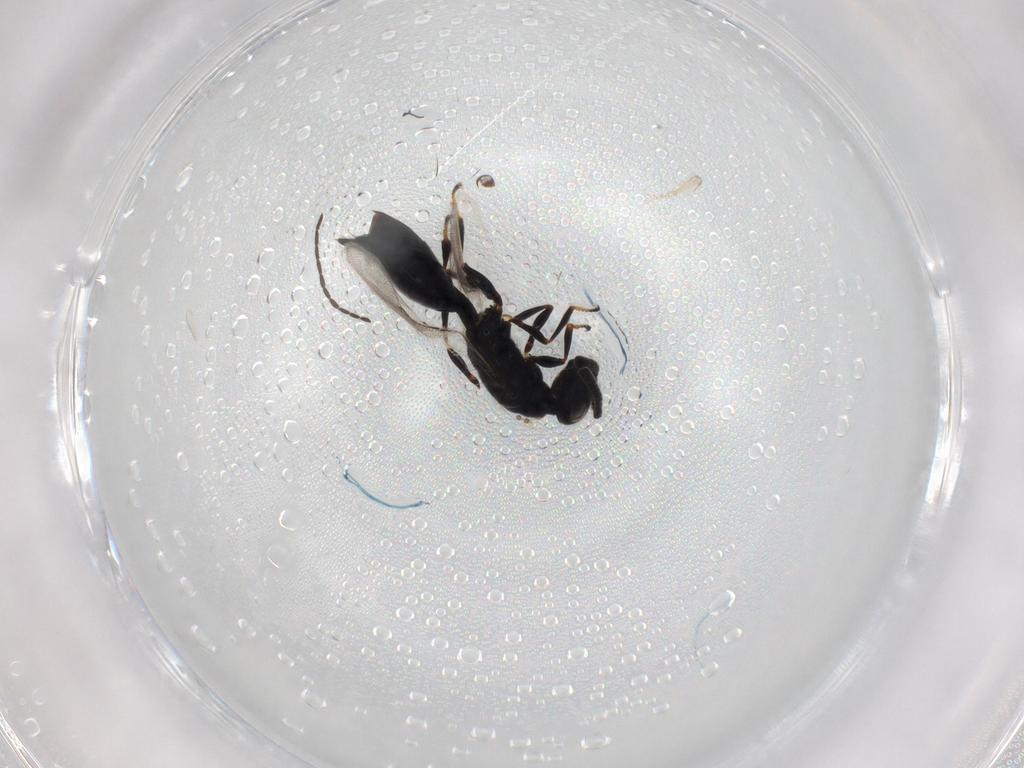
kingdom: Animalia
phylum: Arthropoda
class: Insecta
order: Hymenoptera
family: Braconidae
